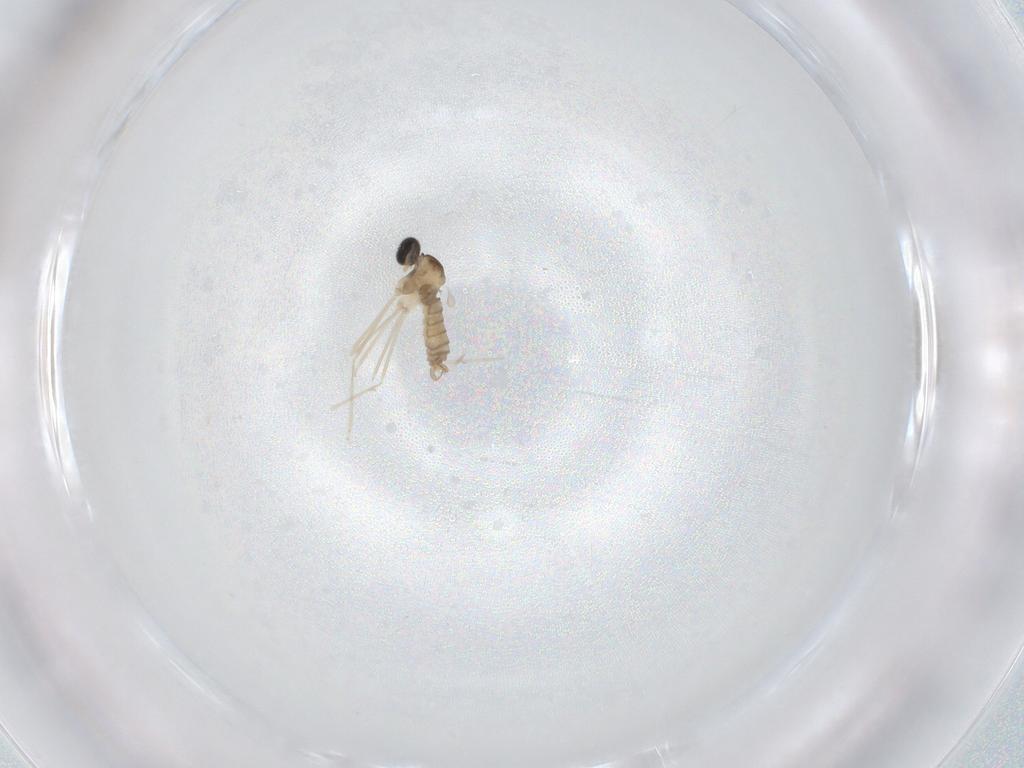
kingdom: Animalia
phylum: Arthropoda
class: Insecta
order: Diptera
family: Cecidomyiidae
